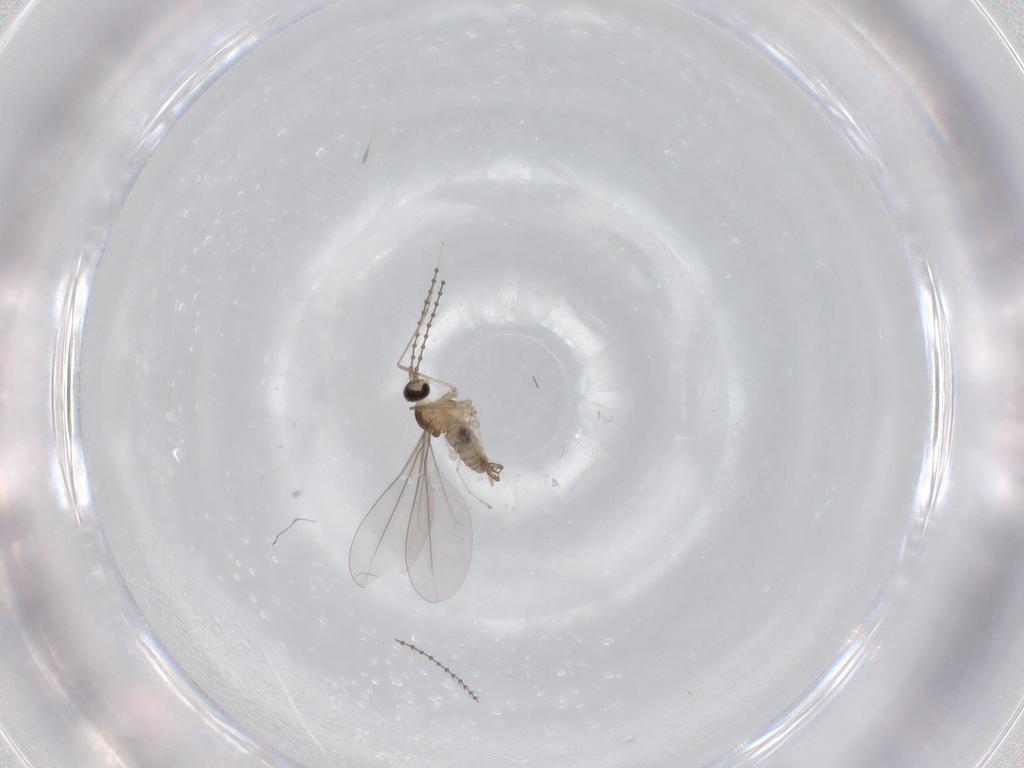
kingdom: Animalia
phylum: Arthropoda
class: Insecta
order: Diptera
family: Cecidomyiidae
